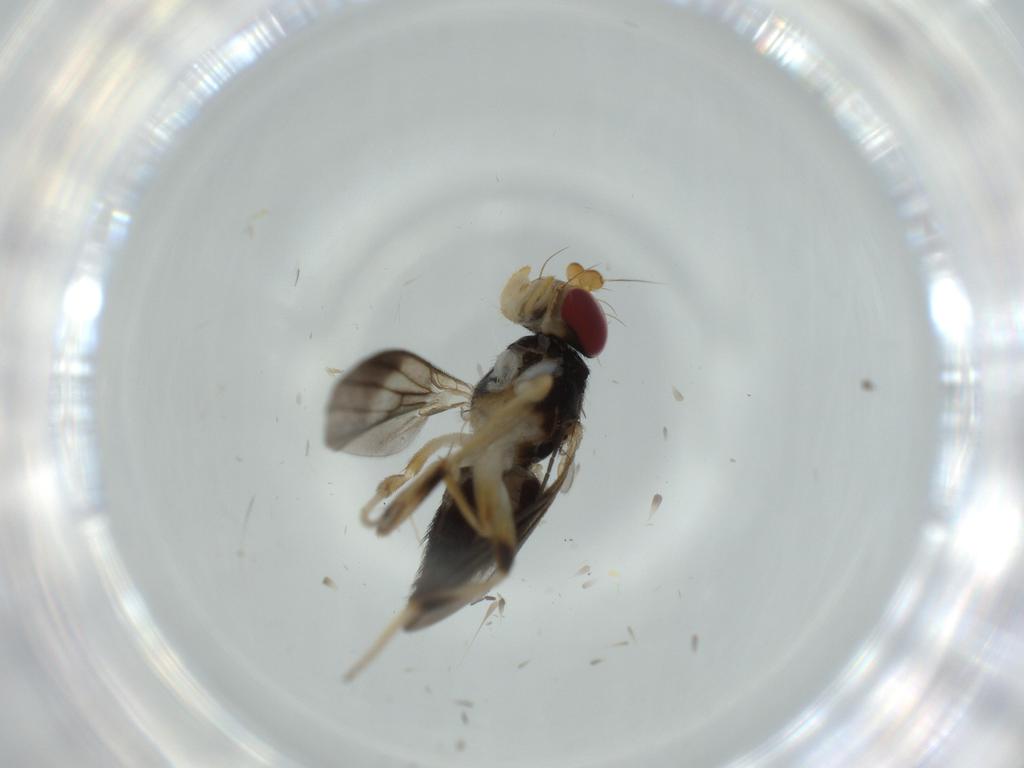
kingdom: Animalia
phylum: Arthropoda
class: Insecta
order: Diptera
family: Clusiidae
